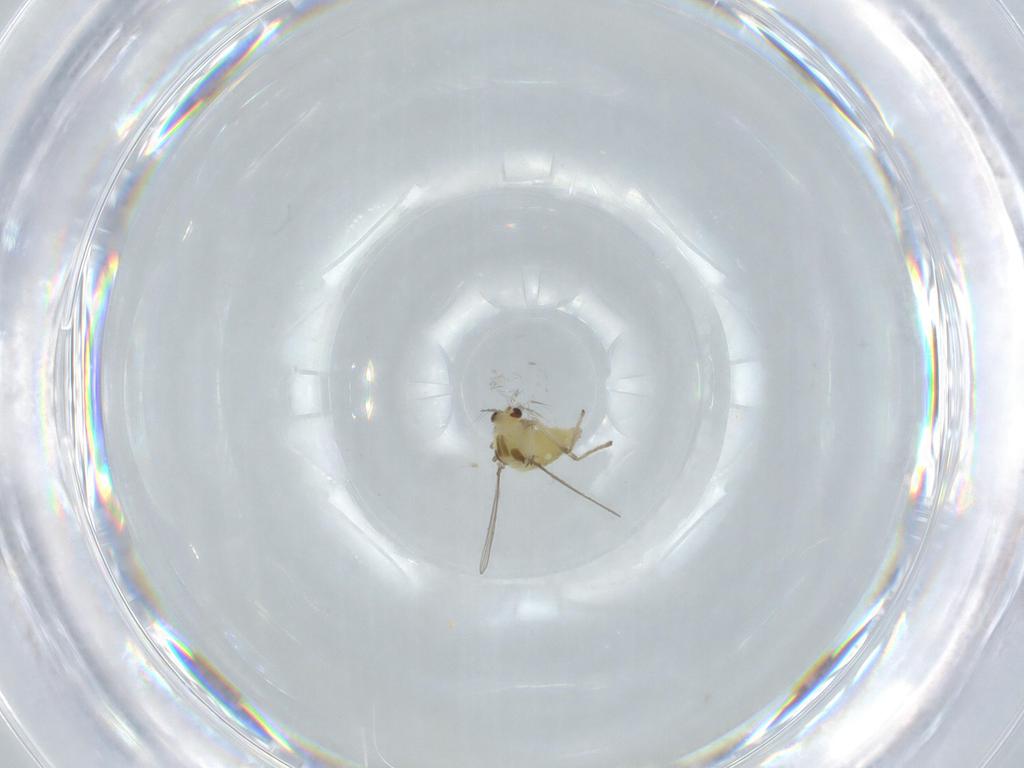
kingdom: Animalia
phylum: Arthropoda
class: Insecta
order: Diptera
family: Chironomidae
